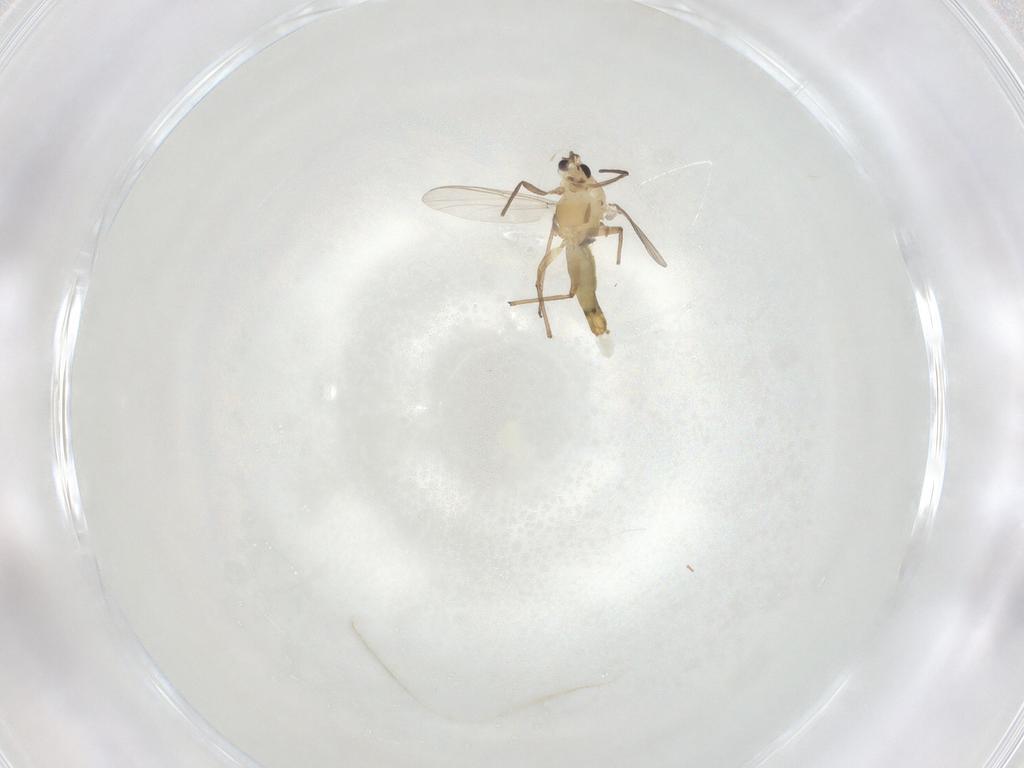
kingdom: Animalia
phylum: Arthropoda
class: Insecta
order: Diptera
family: Chironomidae
